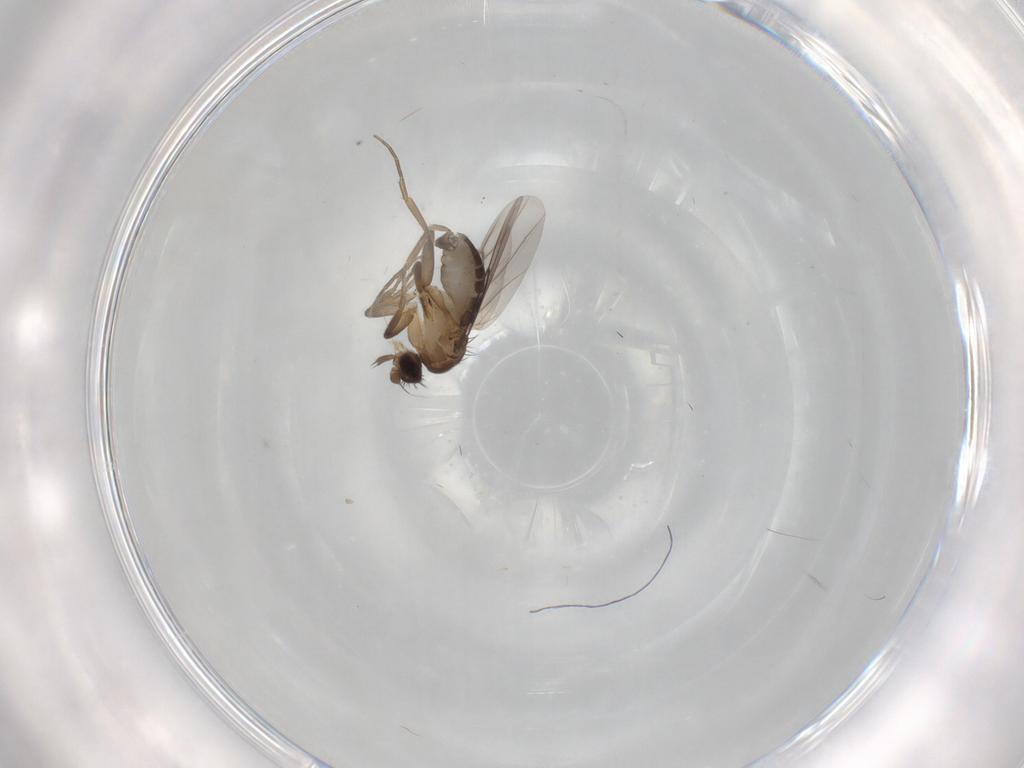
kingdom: Animalia
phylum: Arthropoda
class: Insecta
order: Diptera
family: Phoridae
